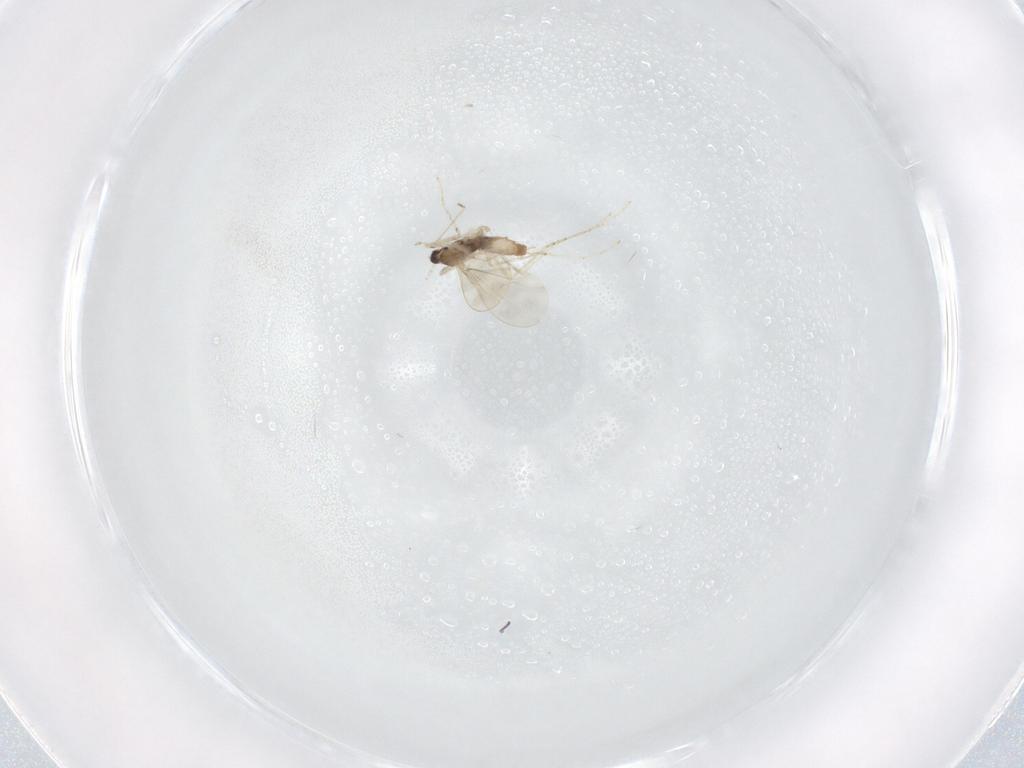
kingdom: Animalia
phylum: Arthropoda
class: Insecta
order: Diptera
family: Cecidomyiidae
